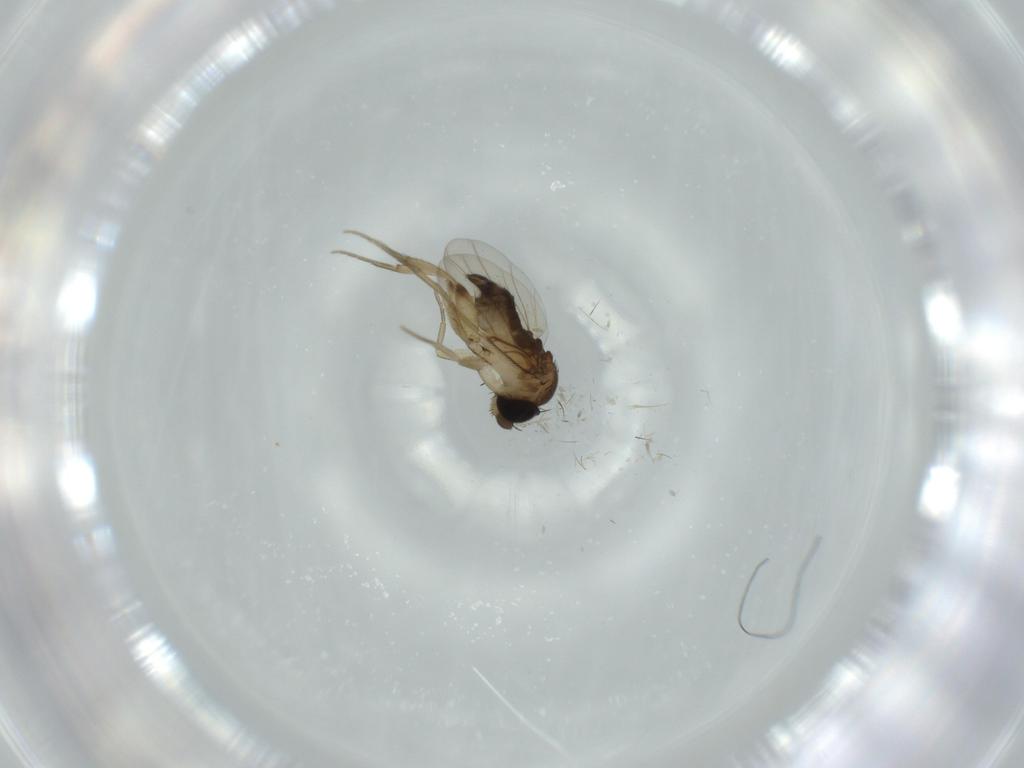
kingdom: Animalia
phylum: Arthropoda
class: Insecta
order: Diptera
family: Phoridae
